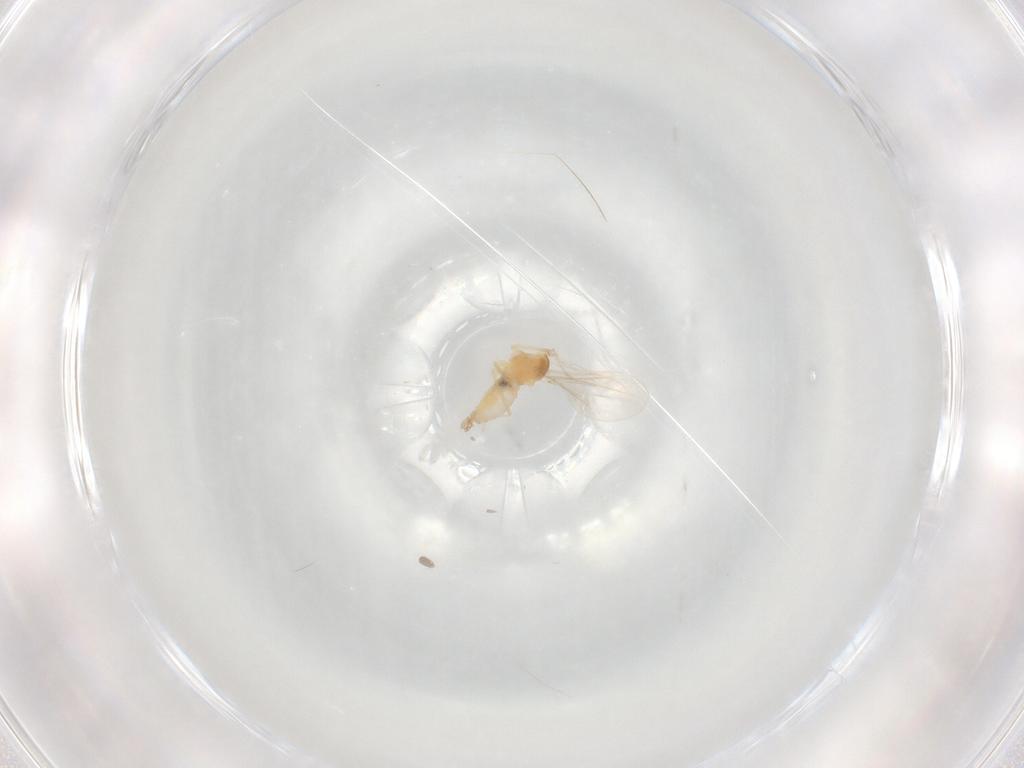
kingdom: Animalia
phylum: Arthropoda
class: Insecta
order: Diptera
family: Cecidomyiidae
